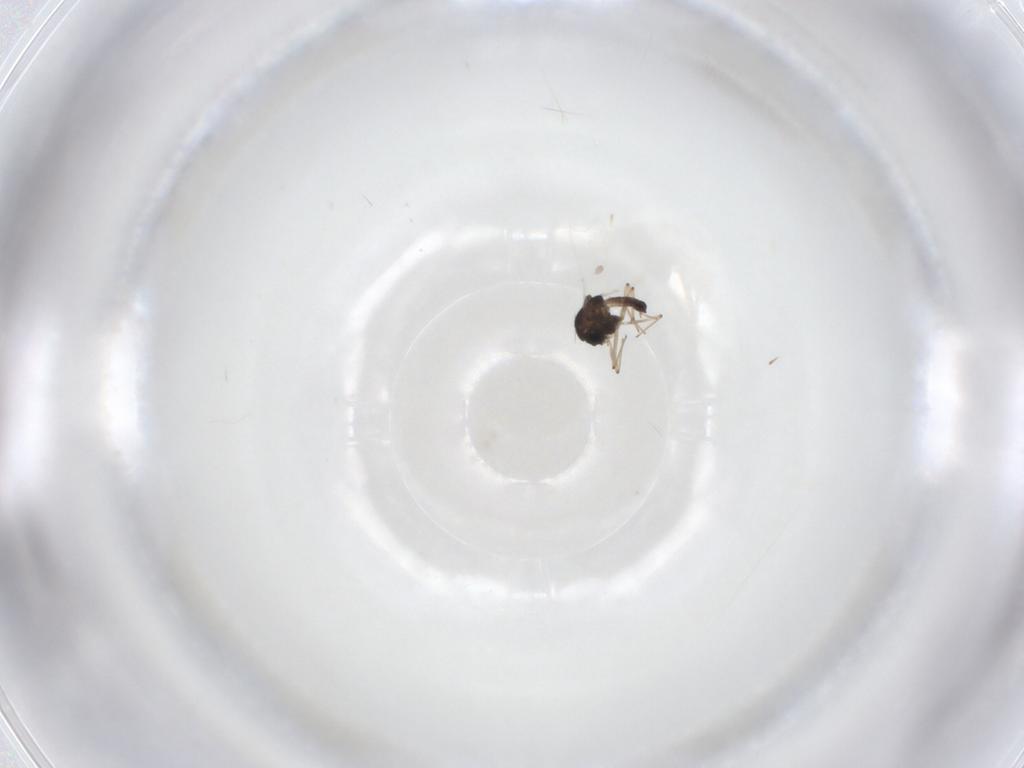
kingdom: Animalia
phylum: Arthropoda
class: Insecta
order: Diptera
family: Chironomidae
